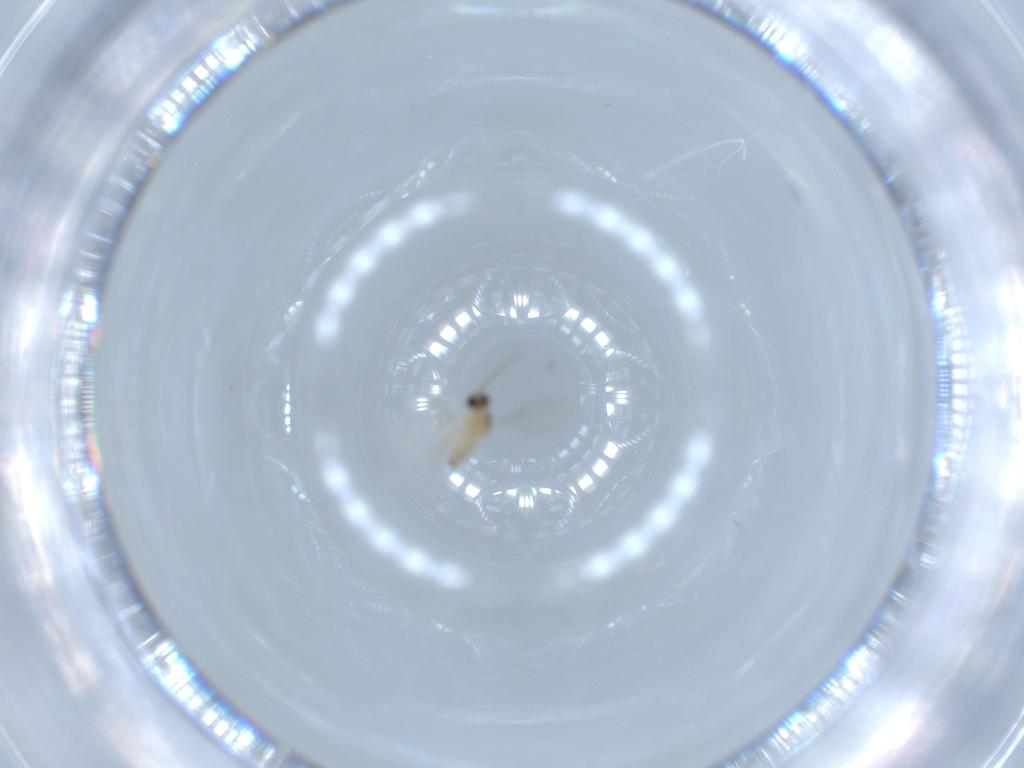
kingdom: Animalia
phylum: Arthropoda
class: Insecta
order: Diptera
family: Cecidomyiidae
